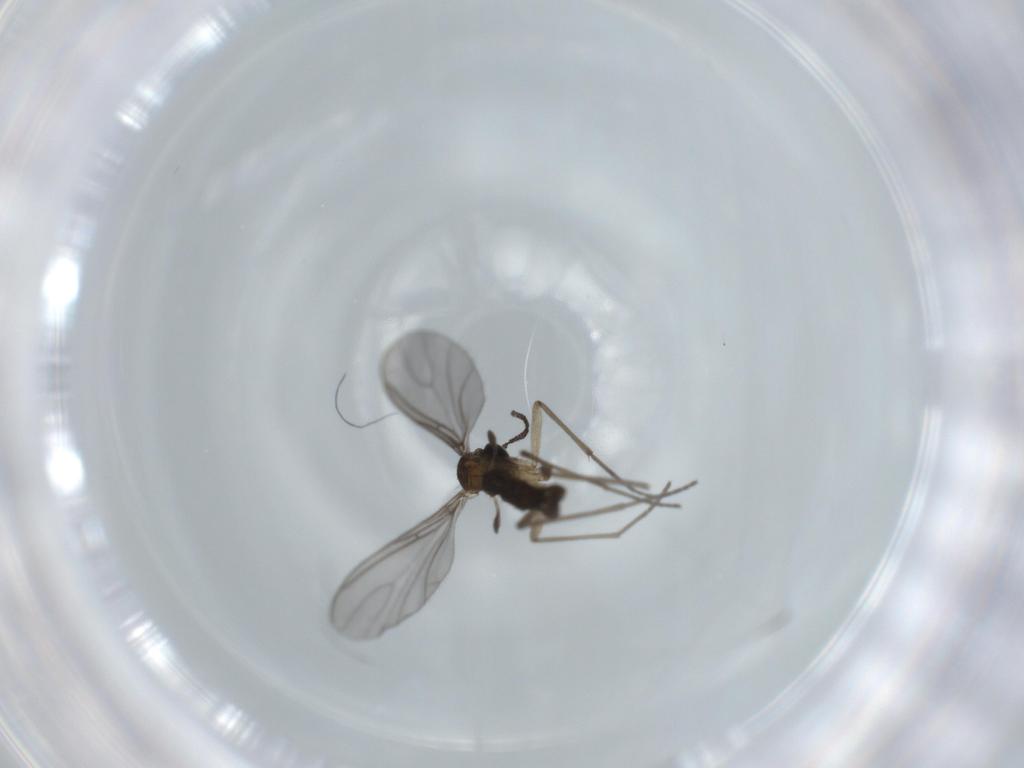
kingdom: Animalia
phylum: Arthropoda
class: Insecta
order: Diptera
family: Sciaridae
